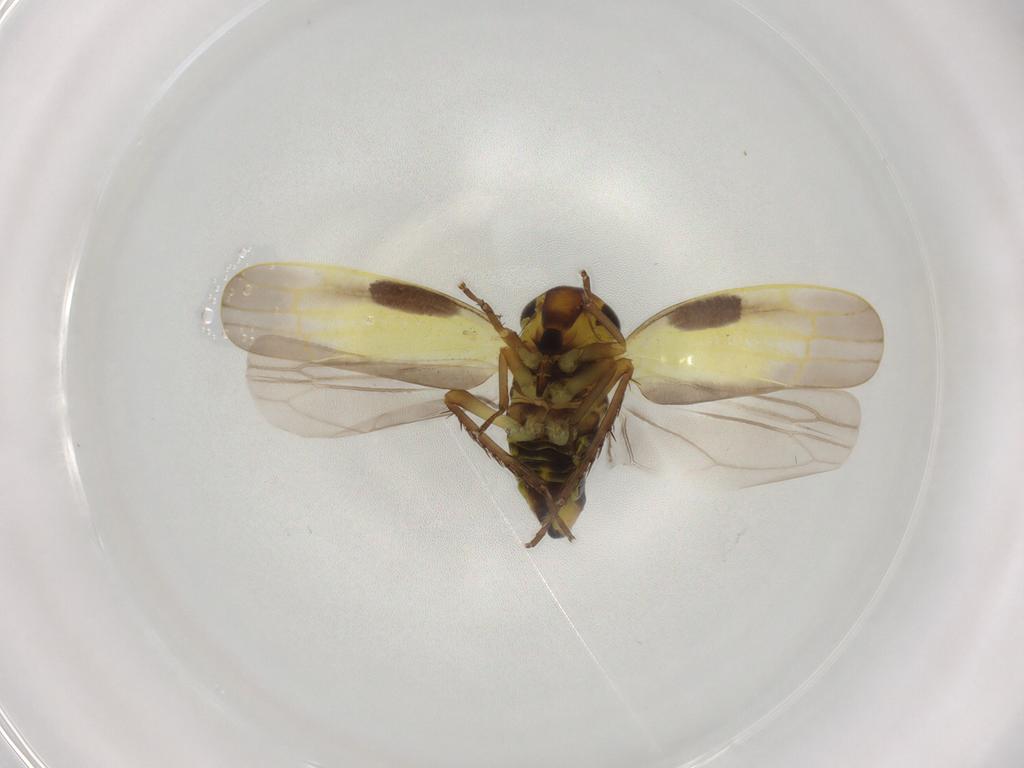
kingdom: Animalia
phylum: Arthropoda
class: Insecta
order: Hemiptera
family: Cicadellidae
